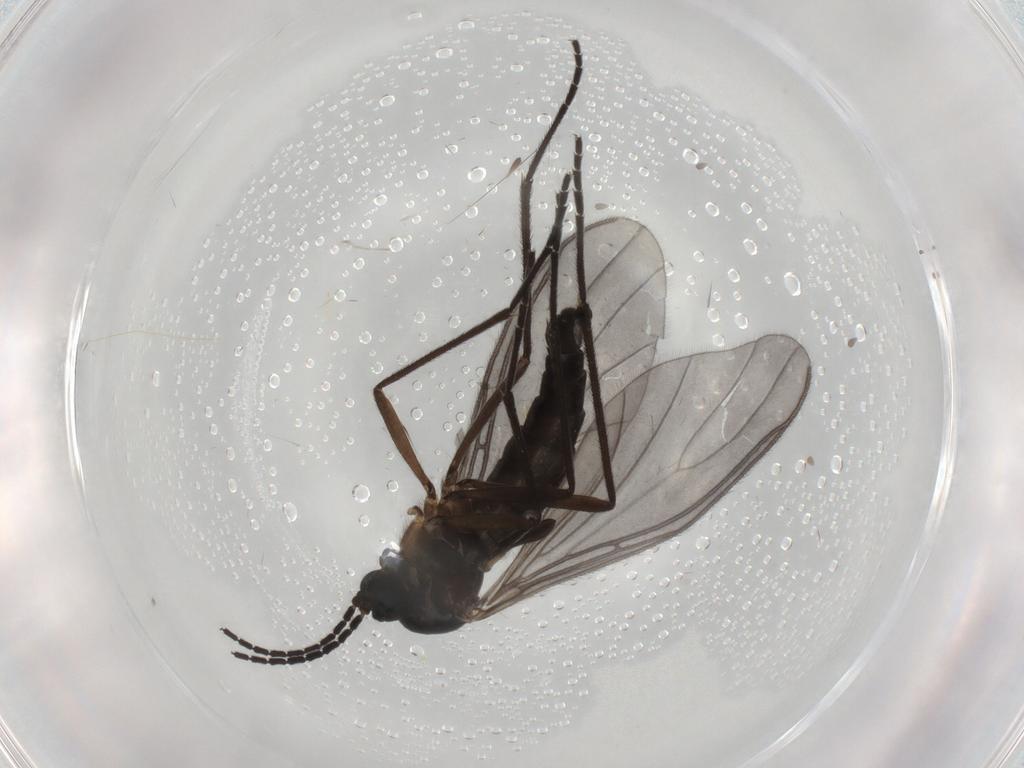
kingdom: Animalia
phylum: Arthropoda
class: Insecta
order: Diptera
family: Cecidomyiidae
